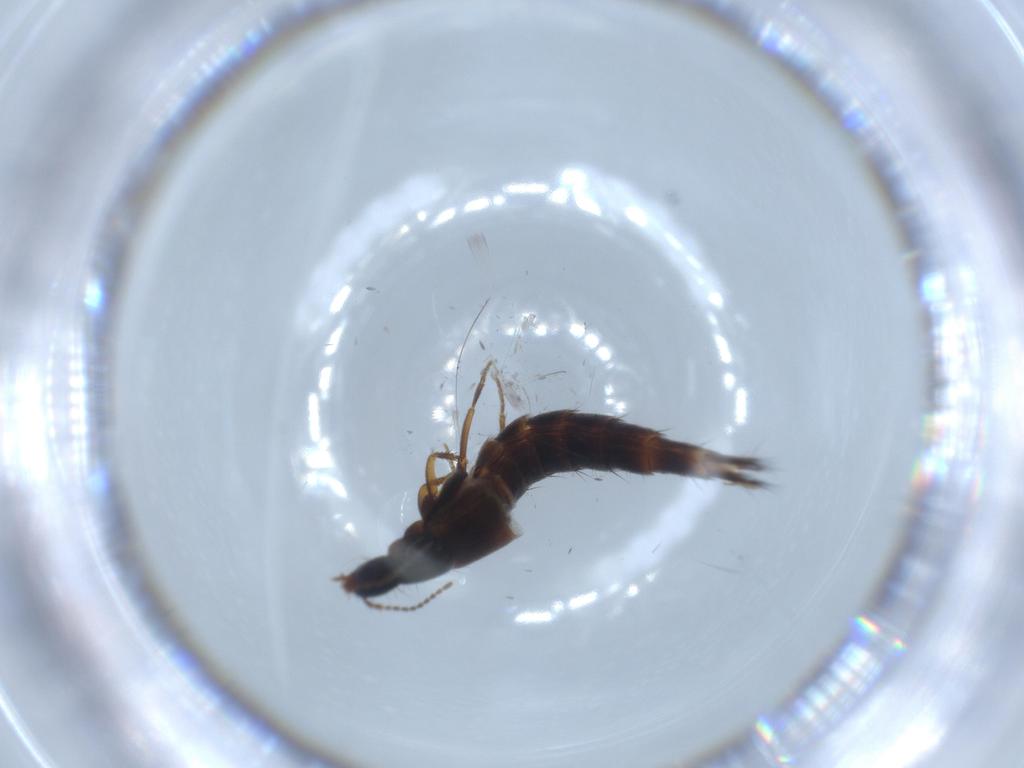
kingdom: Animalia
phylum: Arthropoda
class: Insecta
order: Coleoptera
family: Staphylinidae
